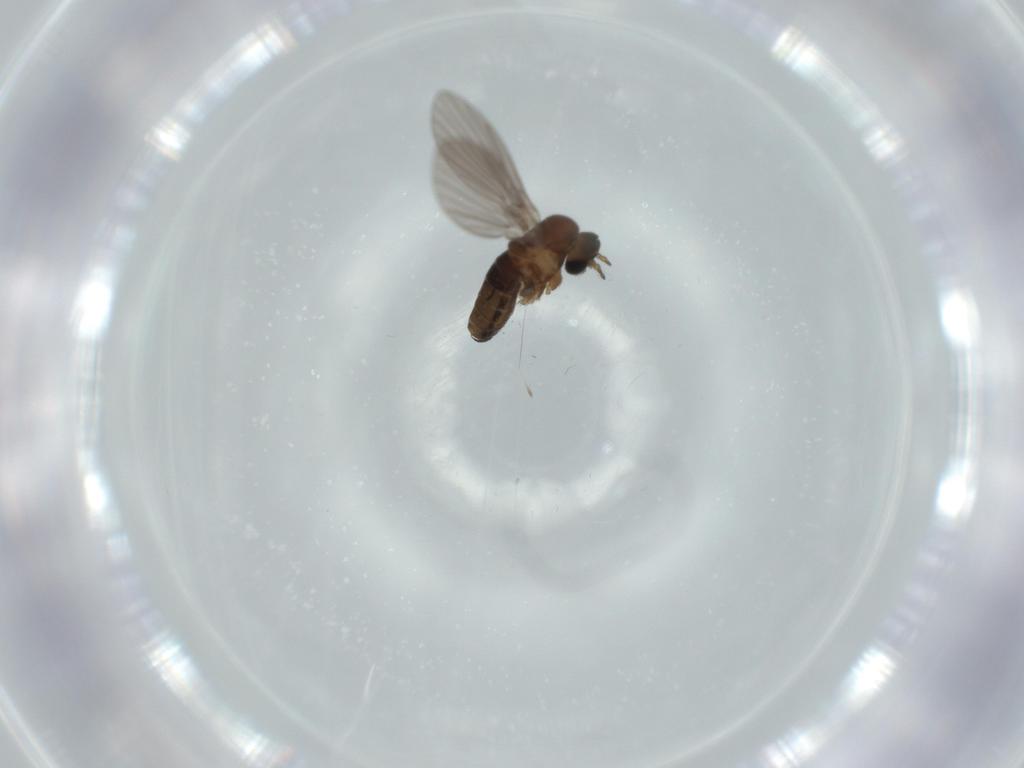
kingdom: Animalia
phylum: Arthropoda
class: Insecta
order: Diptera
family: Psychodidae
